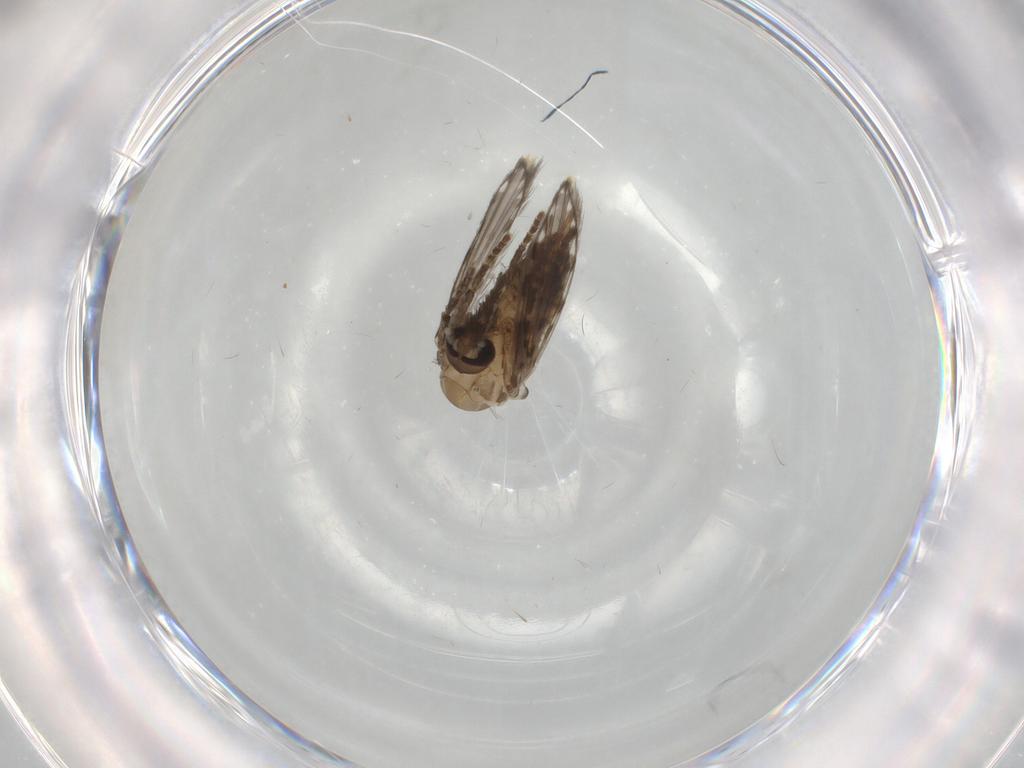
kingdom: Animalia
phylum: Arthropoda
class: Insecta
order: Diptera
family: Psychodidae
